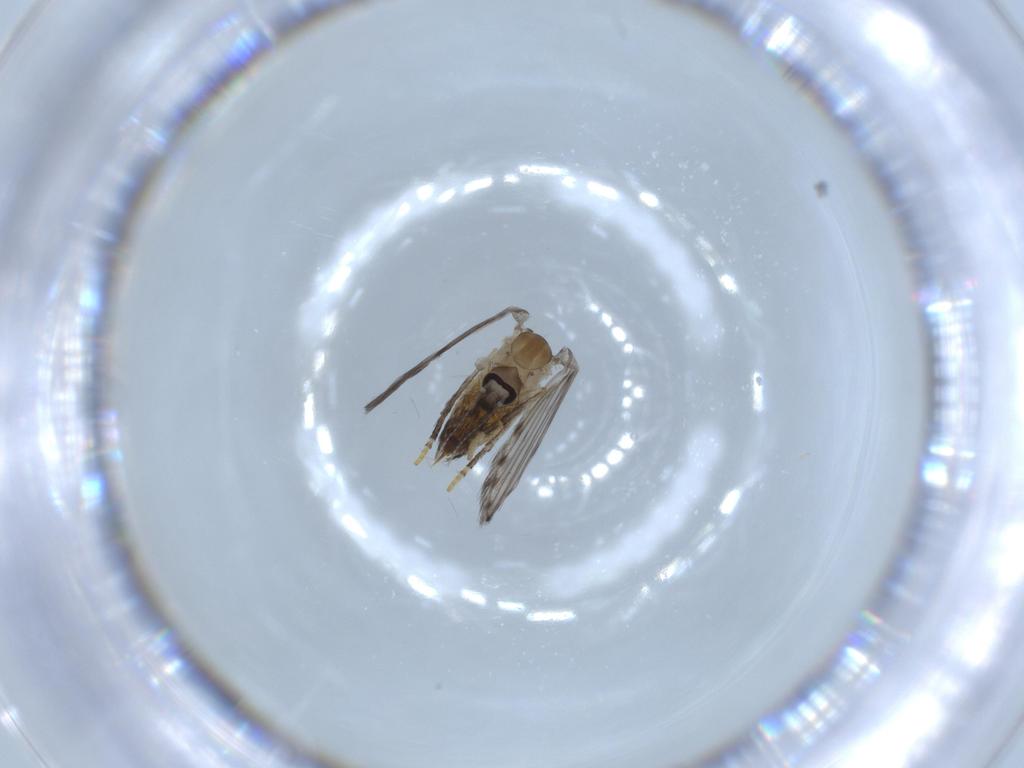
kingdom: Animalia
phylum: Arthropoda
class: Insecta
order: Diptera
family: Psychodidae
